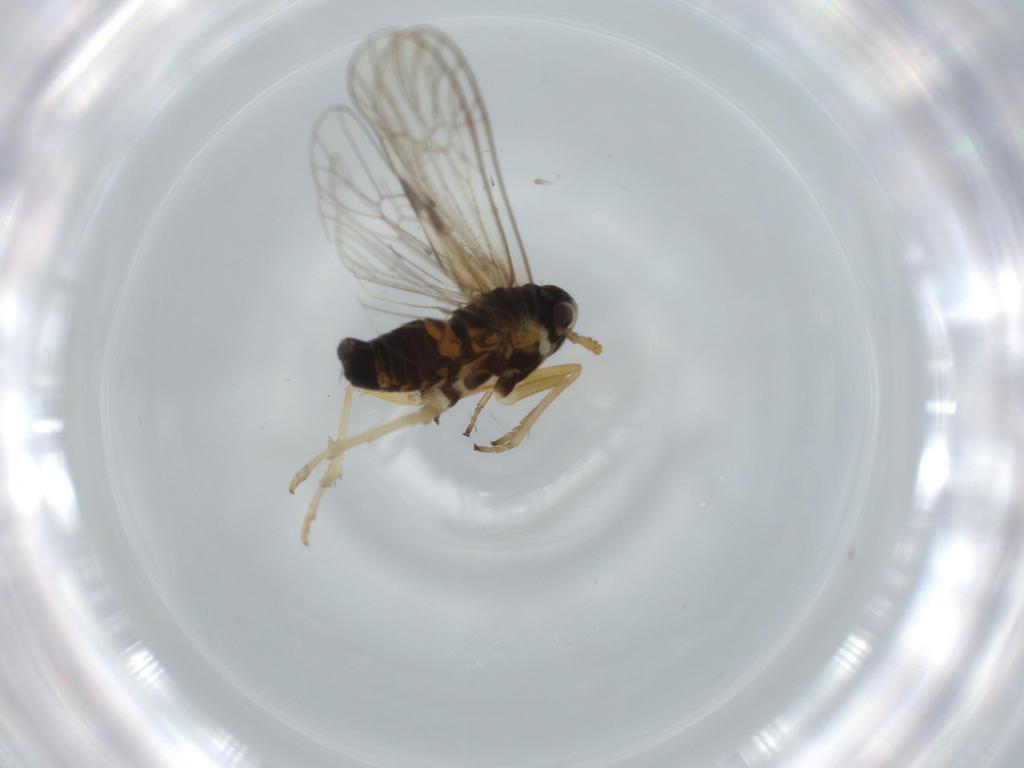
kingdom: Animalia
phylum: Arthropoda
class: Insecta
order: Hemiptera
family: Aleyrodidae
